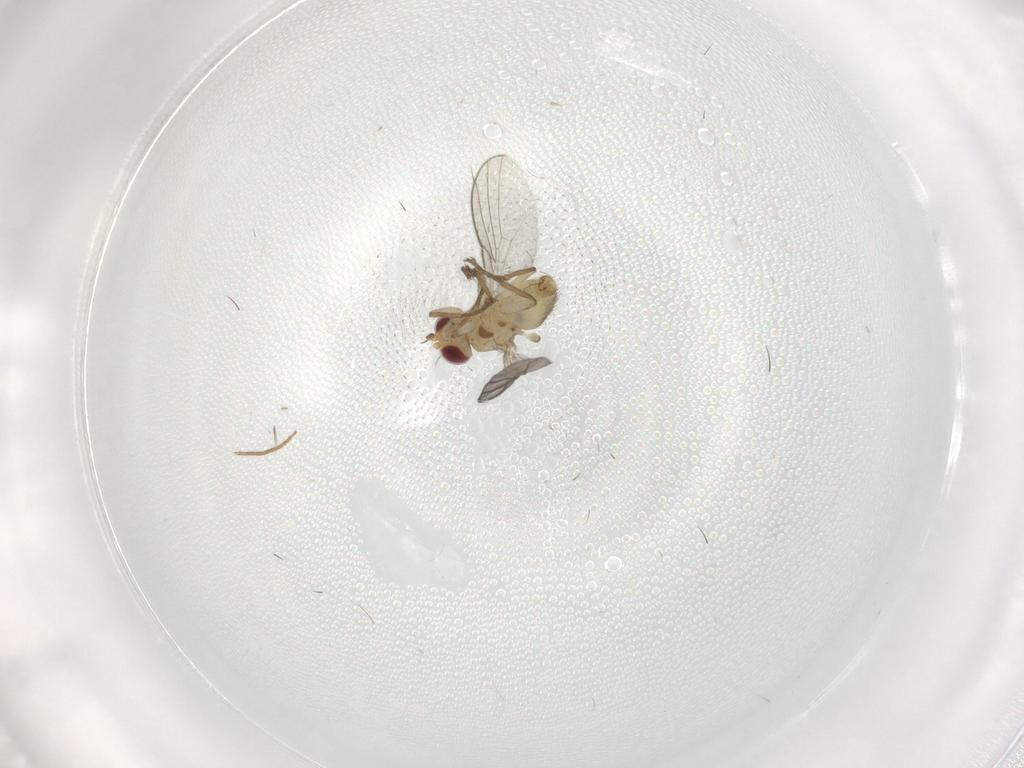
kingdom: Animalia
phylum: Arthropoda
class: Insecta
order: Diptera
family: Agromyzidae
